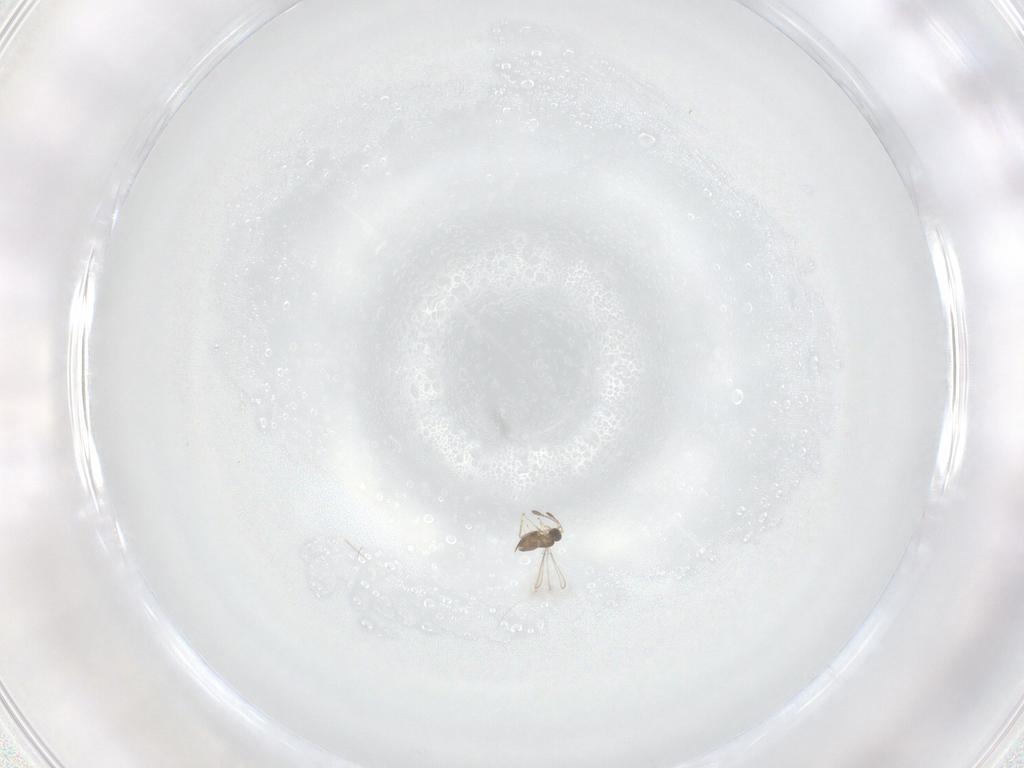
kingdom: Animalia
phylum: Arthropoda
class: Insecta
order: Hymenoptera
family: Mymaridae
